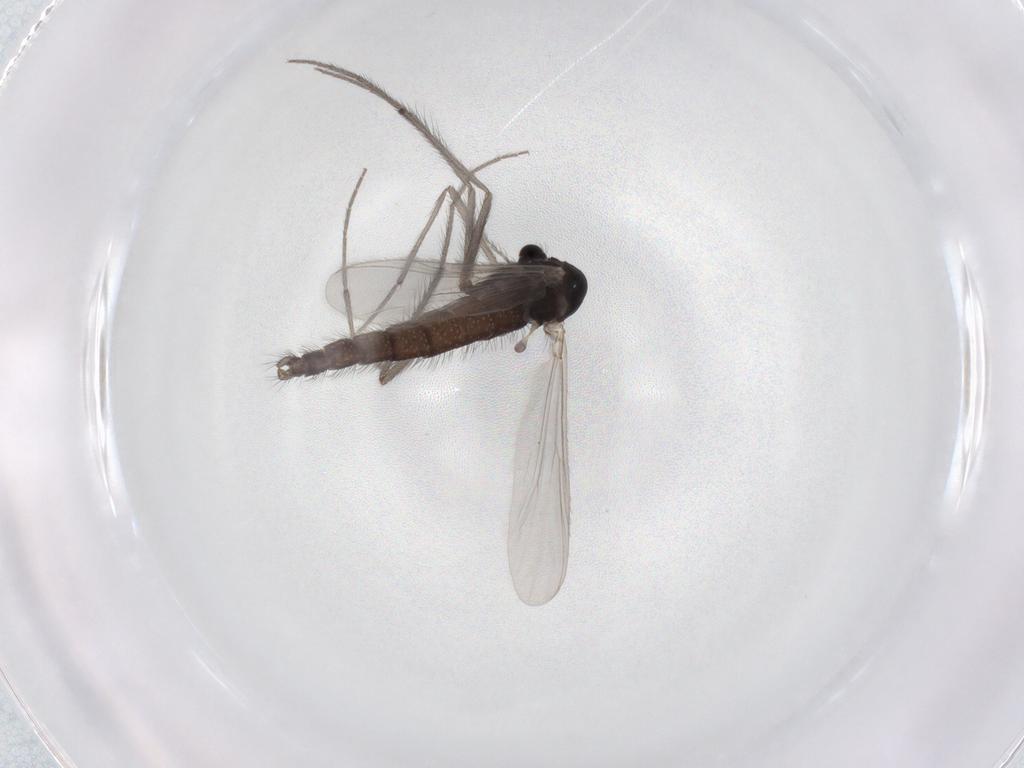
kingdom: Animalia
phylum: Arthropoda
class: Insecta
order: Diptera
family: Chironomidae
